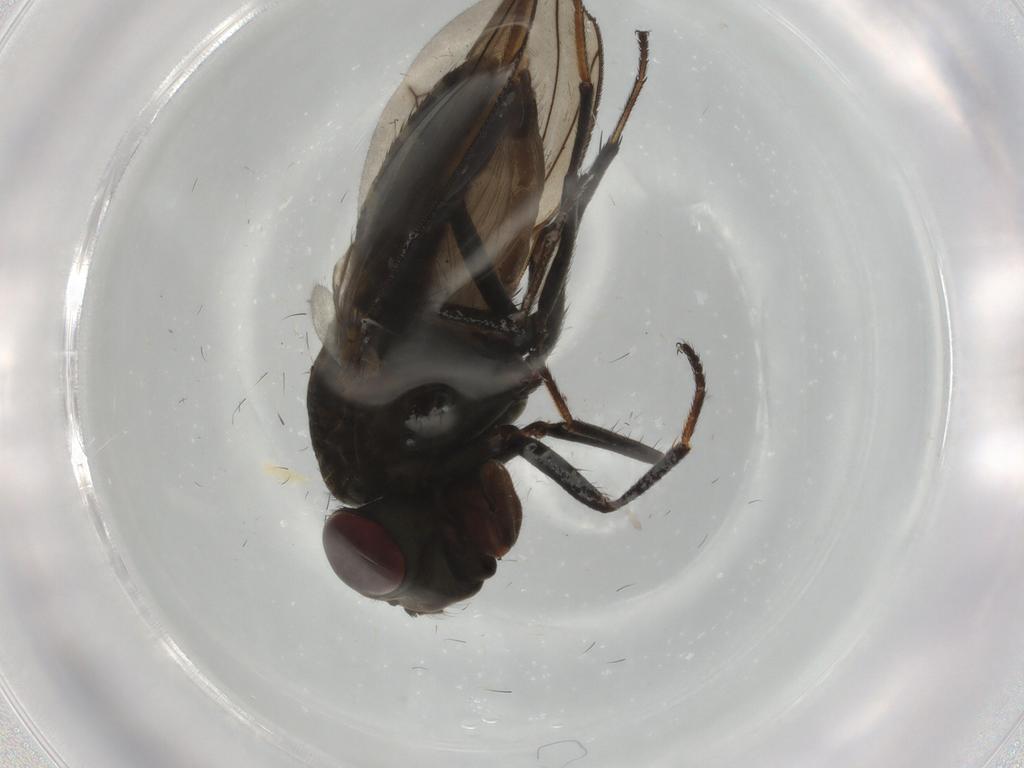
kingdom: Animalia
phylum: Arthropoda
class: Insecta
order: Diptera
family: Ephydridae
